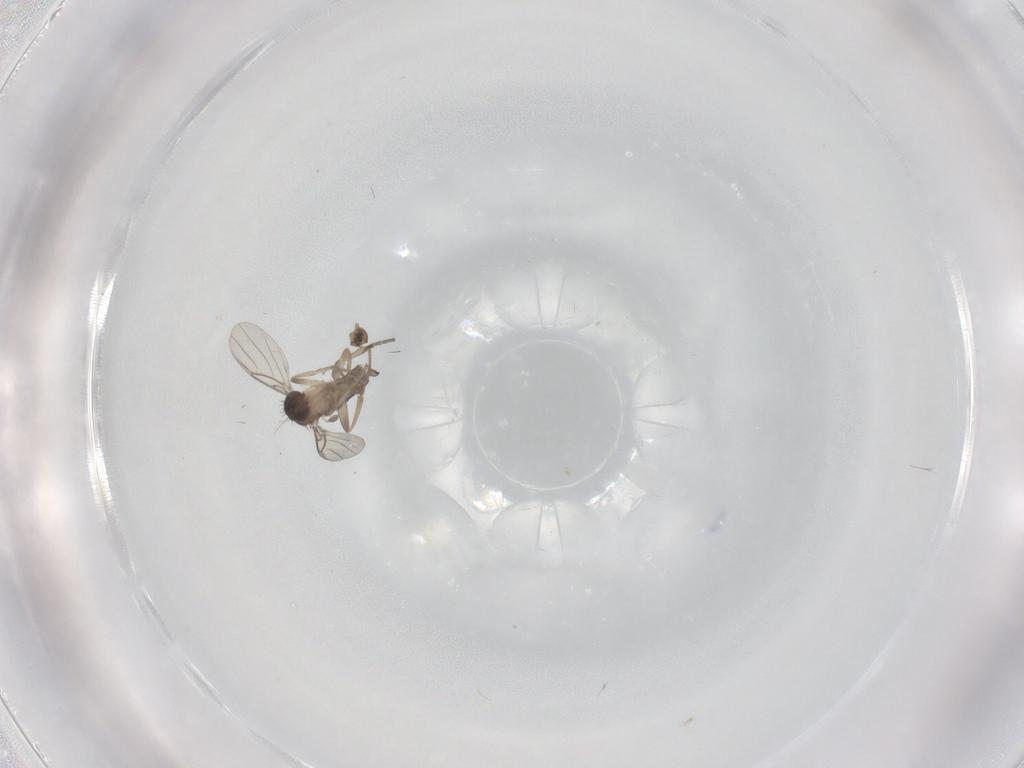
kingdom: Animalia
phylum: Arthropoda
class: Insecta
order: Diptera
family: Phoridae
